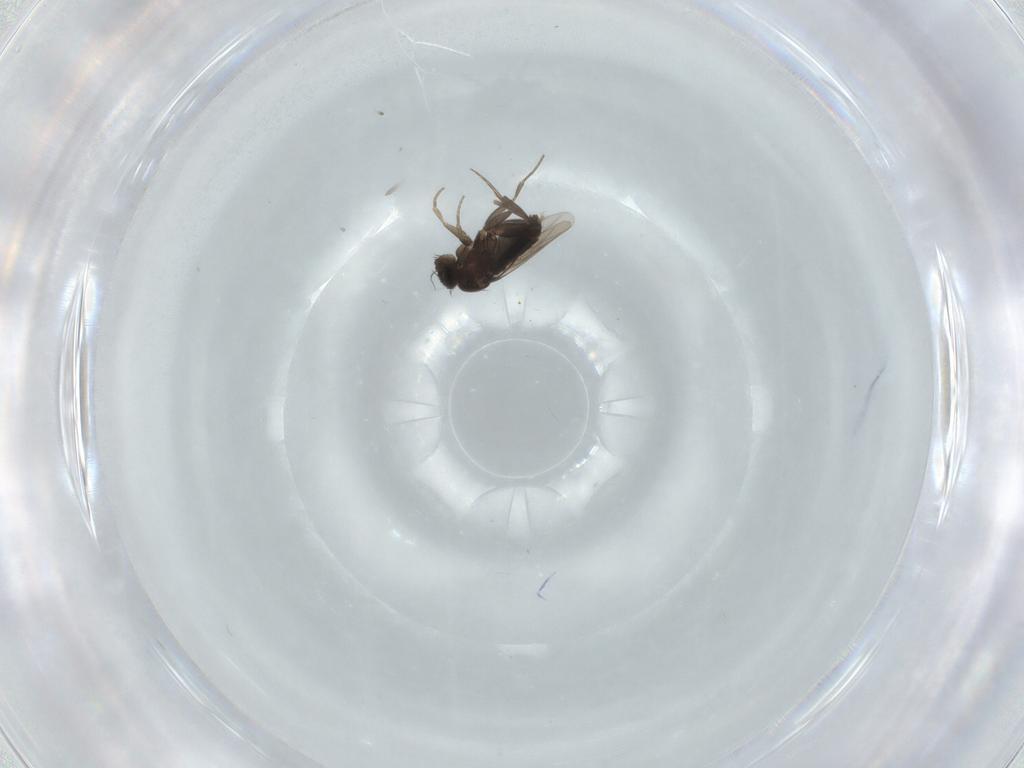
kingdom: Animalia
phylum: Arthropoda
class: Insecta
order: Diptera
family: Phoridae
